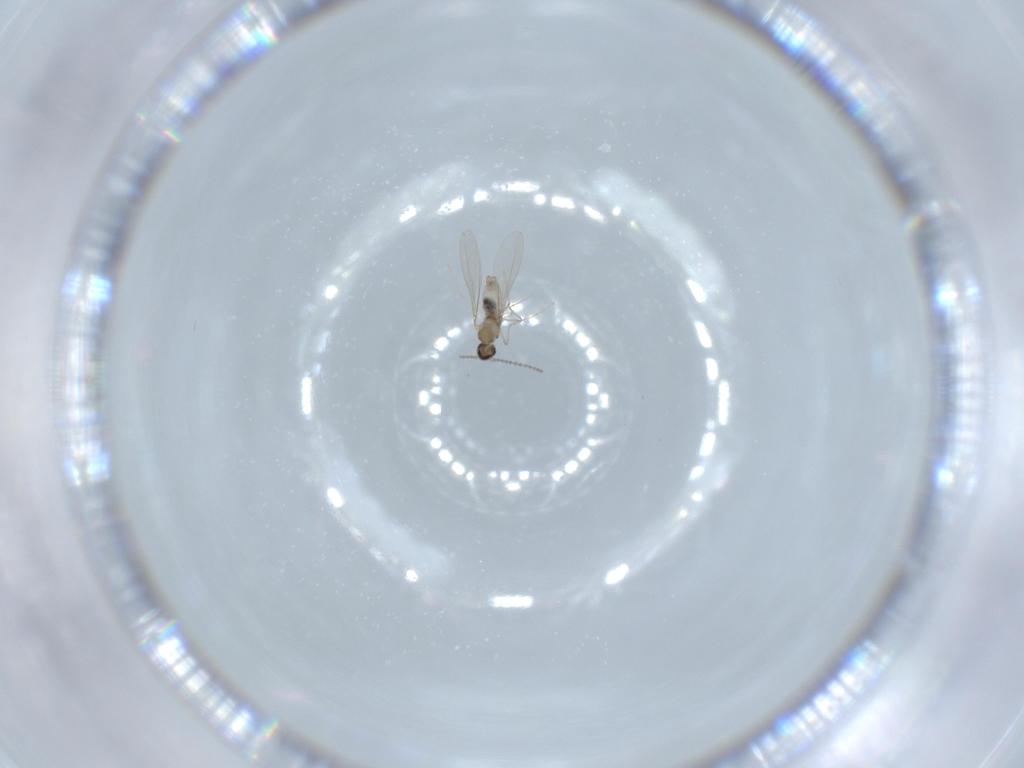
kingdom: Animalia
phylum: Arthropoda
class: Insecta
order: Diptera
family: Cecidomyiidae
